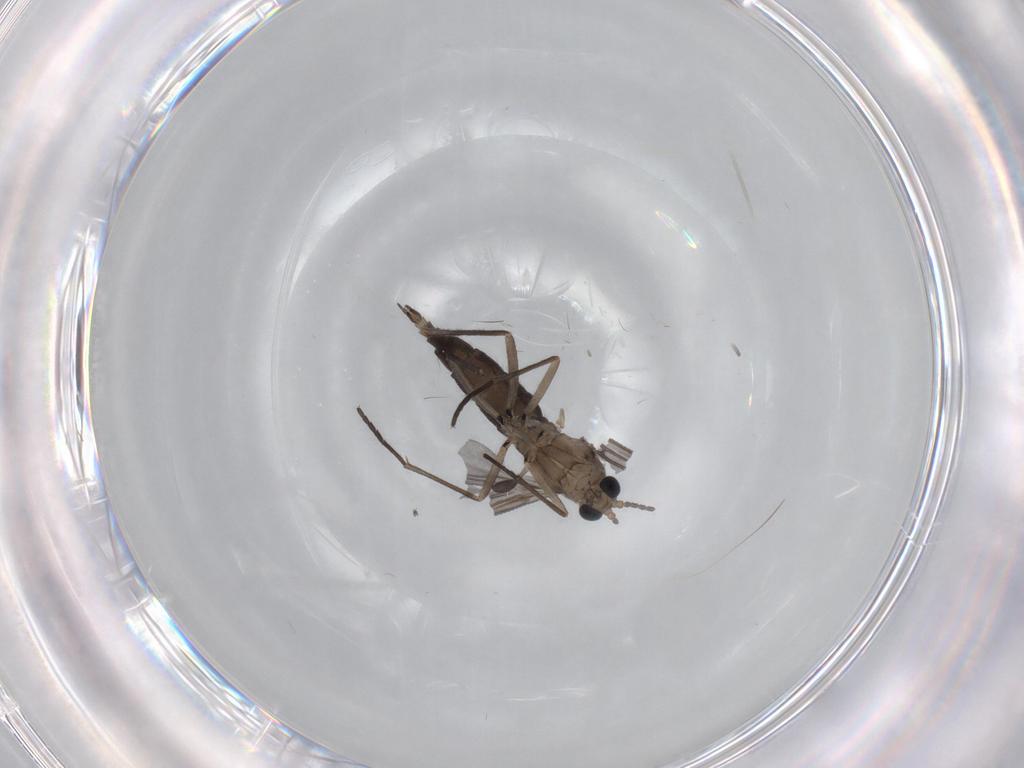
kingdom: Animalia
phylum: Arthropoda
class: Insecta
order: Diptera
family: Sciaridae
